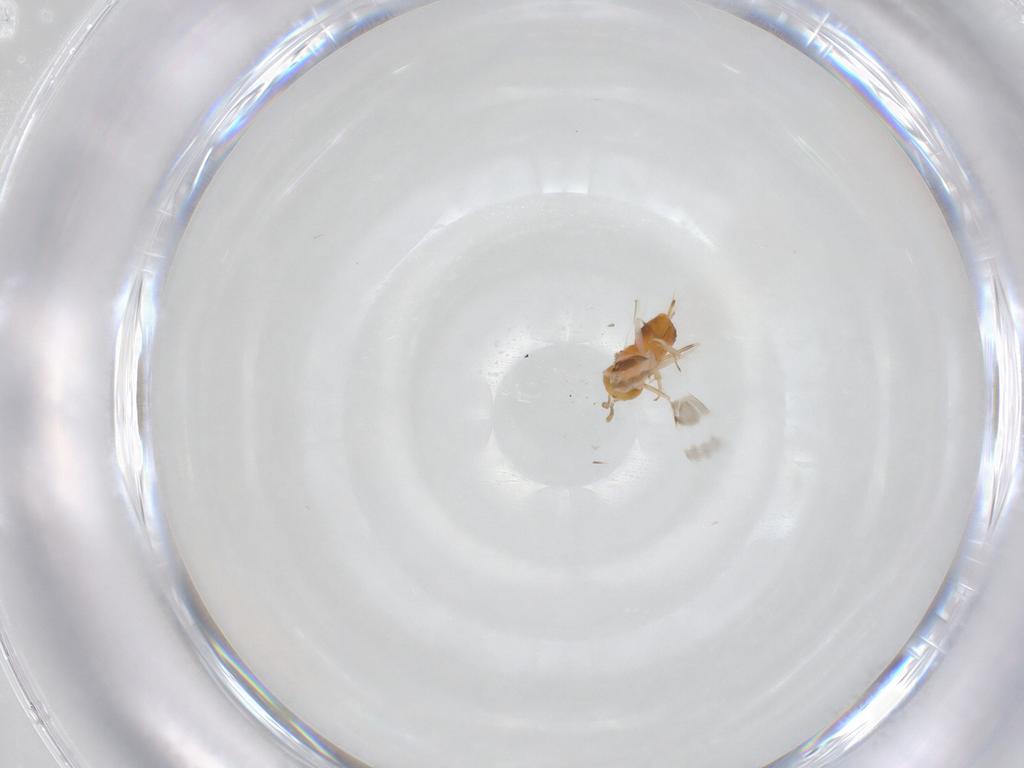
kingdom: Animalia
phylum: Arthropoda
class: Insecta
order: Hymenoptera
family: Encyrtidae
